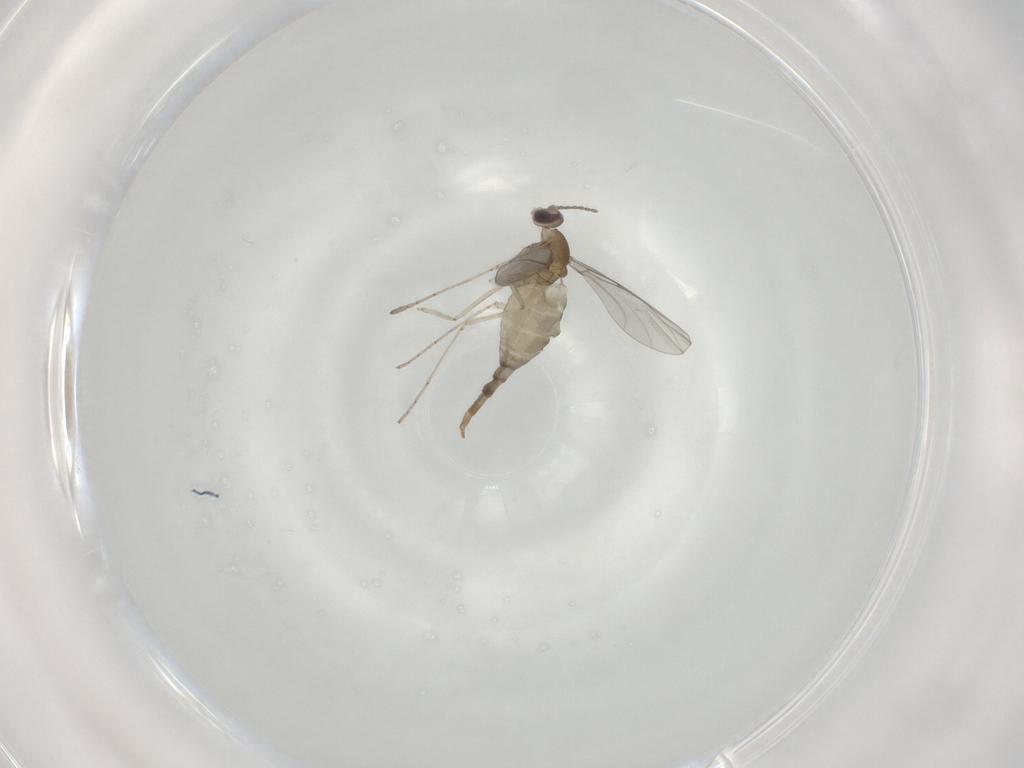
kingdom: Animalia
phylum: Arthropoda
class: Insecta
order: Diptera
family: Cecidomyiidae
